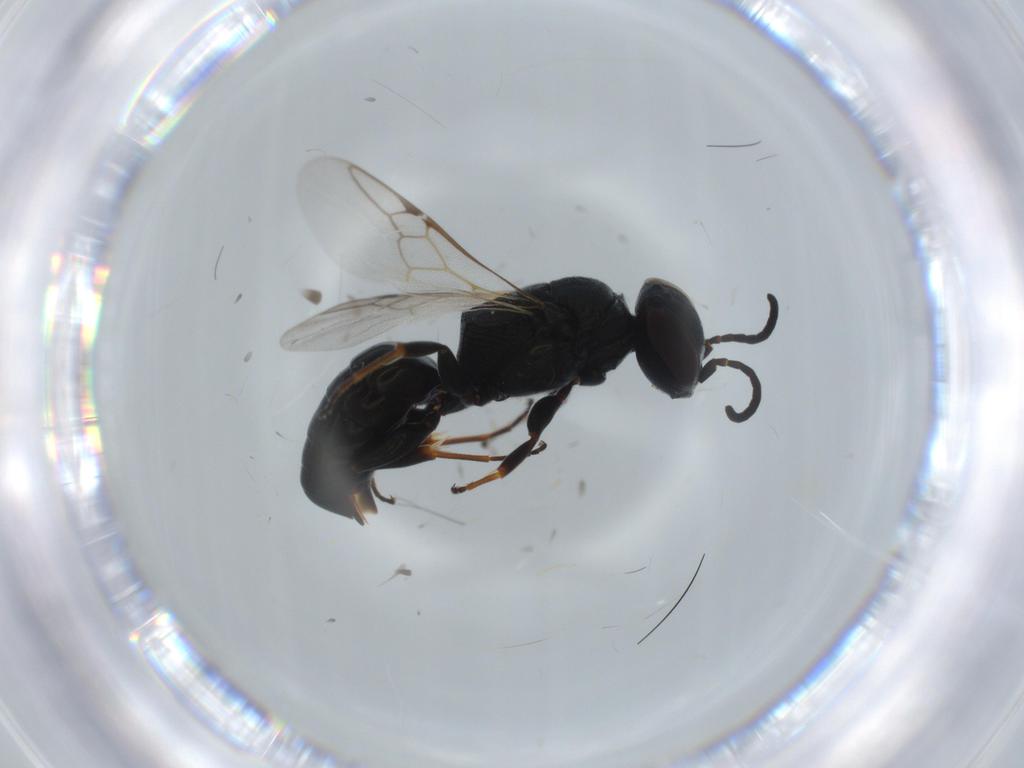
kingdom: Animalia
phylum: Arthropoda
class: Insecta
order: Hymenoptera
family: Crabronidae
